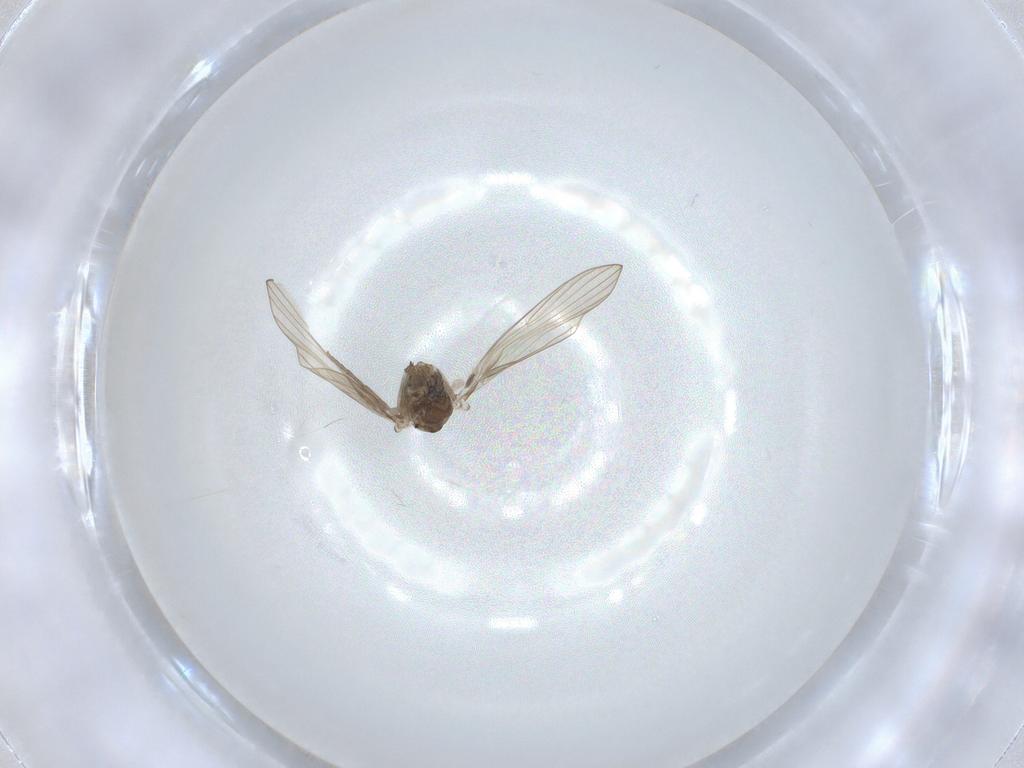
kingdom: Animalia
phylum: Arthropoda
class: Insecta
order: Diptera
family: Psychodidae
